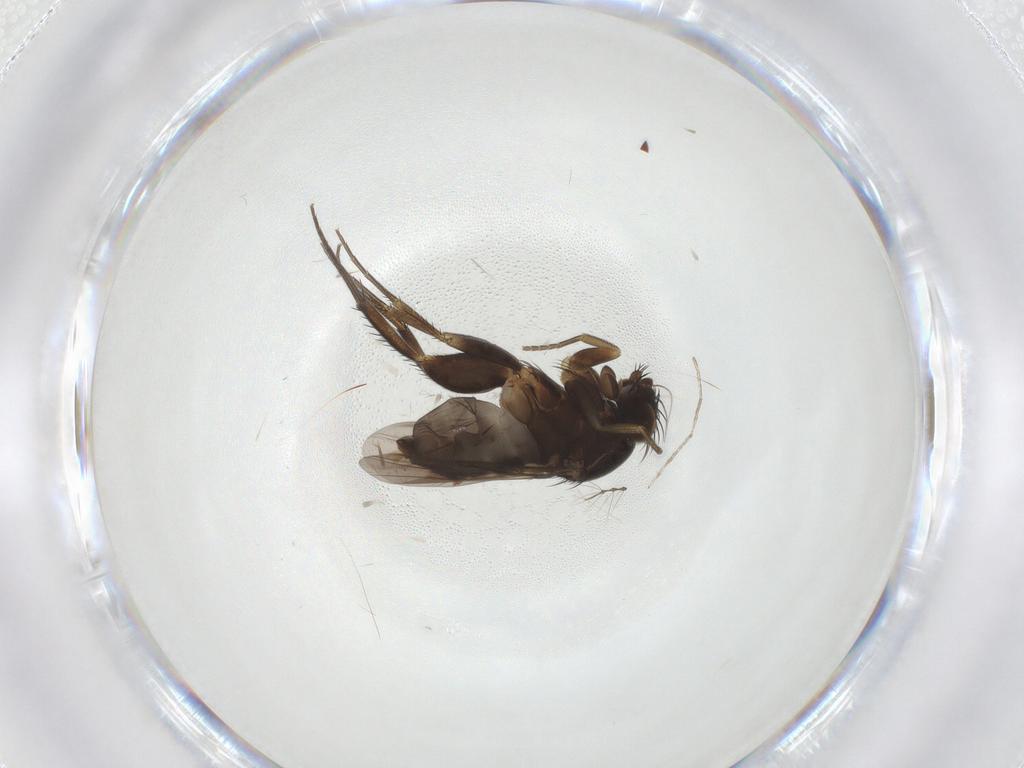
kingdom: Animalia
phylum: Arthropoda
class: Insecta
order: Diptera
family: Phoridae
